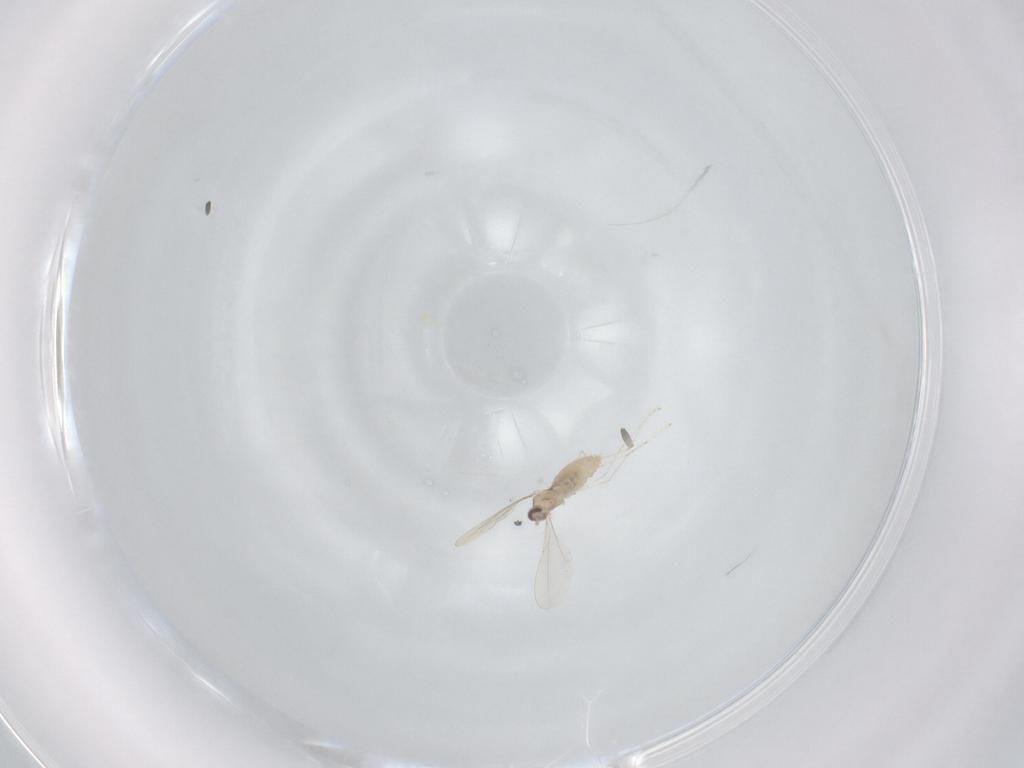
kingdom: Animalia
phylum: Arthropoda
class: Insecta
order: Diptera
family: Cecidomyiidae
